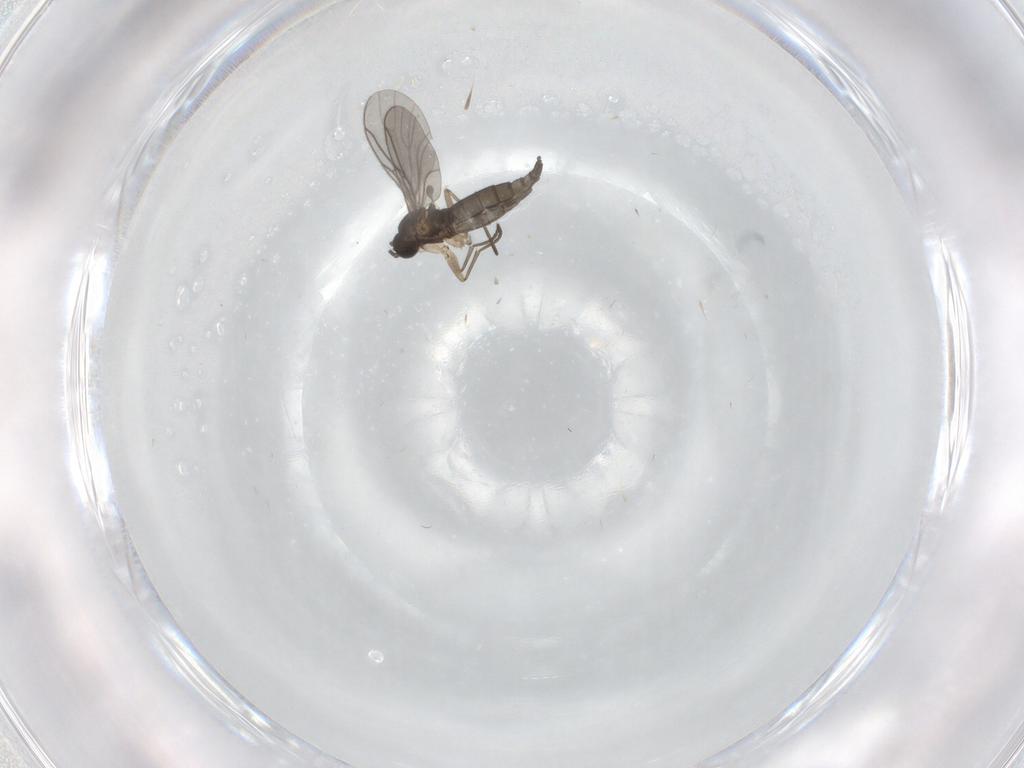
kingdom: Animalia
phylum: Arthropoda
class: Insecta
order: Diptera
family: Sciaridae
